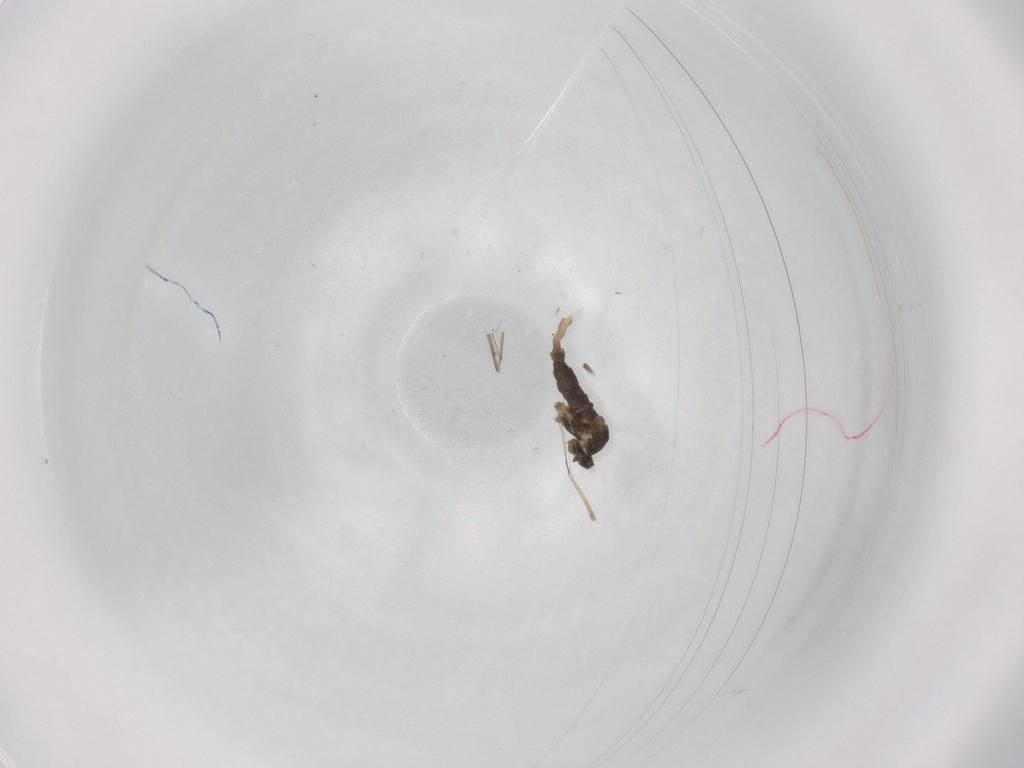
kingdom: Animalia
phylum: Arthropoda
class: Insecta
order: Diptera
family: Cecidomyiidae
